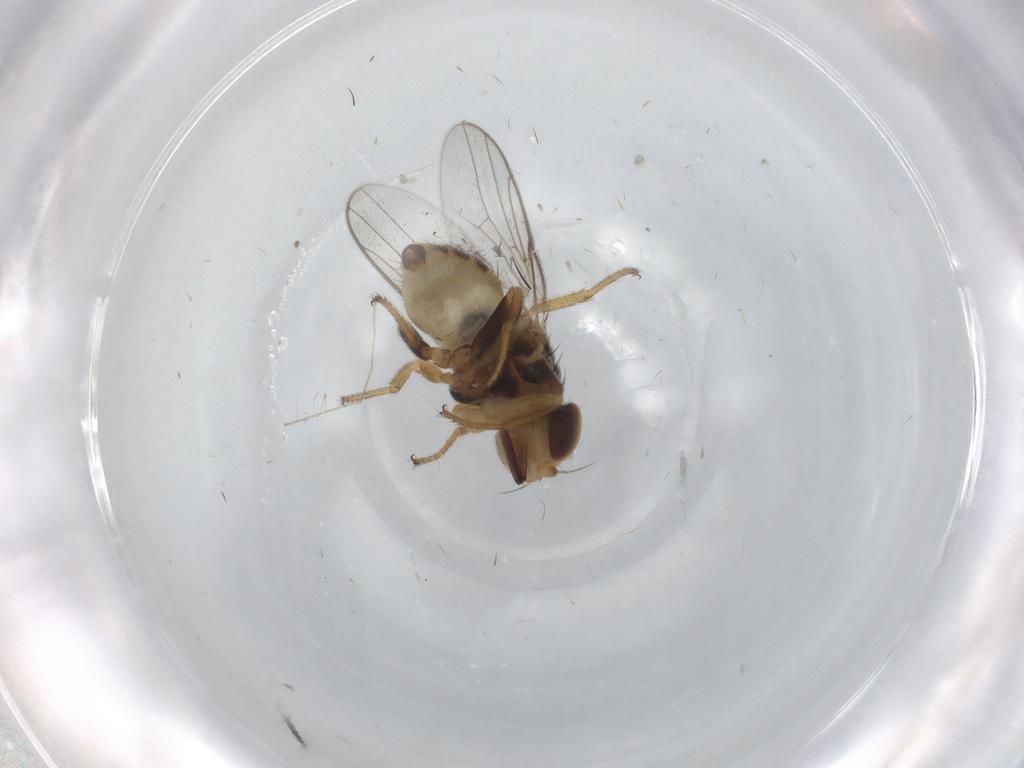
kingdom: Animalia
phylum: Arthropoda
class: Insecta
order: Diptera
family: Chloropidae
